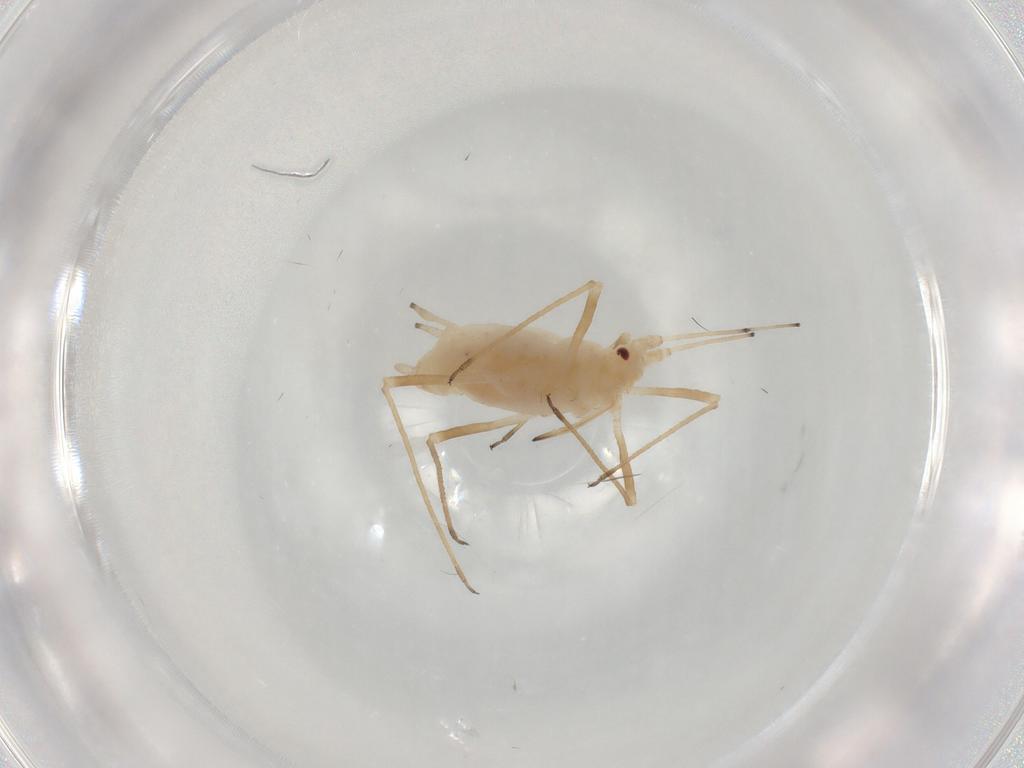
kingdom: Animalia
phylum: Arthropoda
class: Insecta
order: Hemiptera
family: Aphididae
